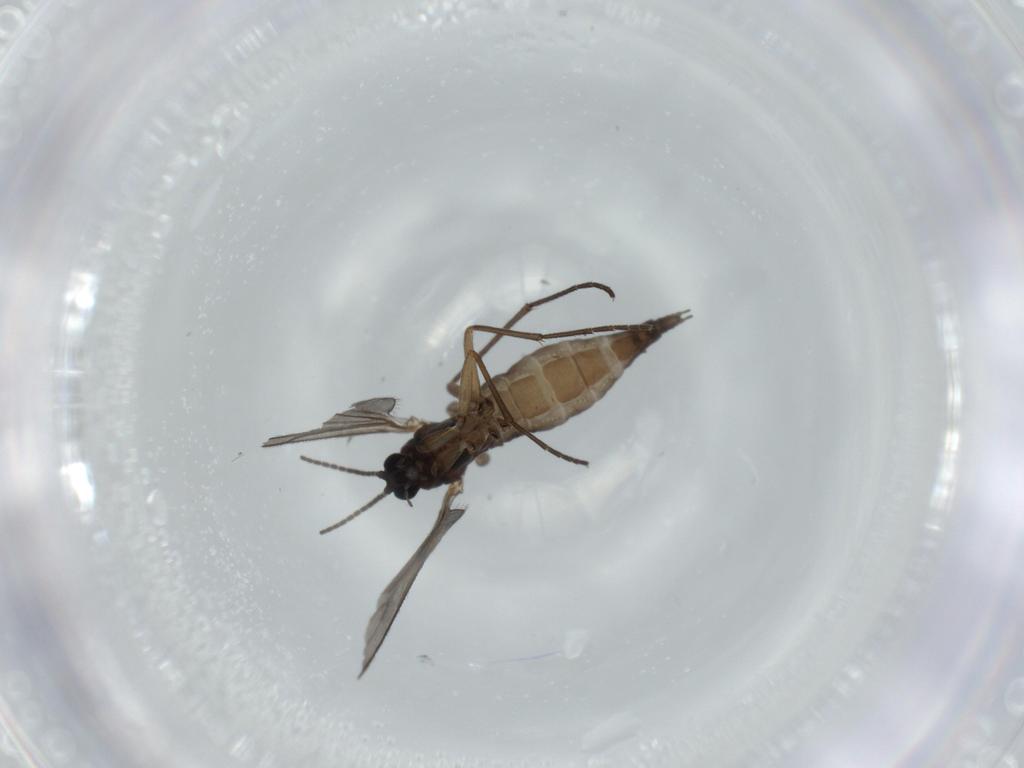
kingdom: Animalia
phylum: Arthropoda
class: Insecta
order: Diptera
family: Sciaridae
